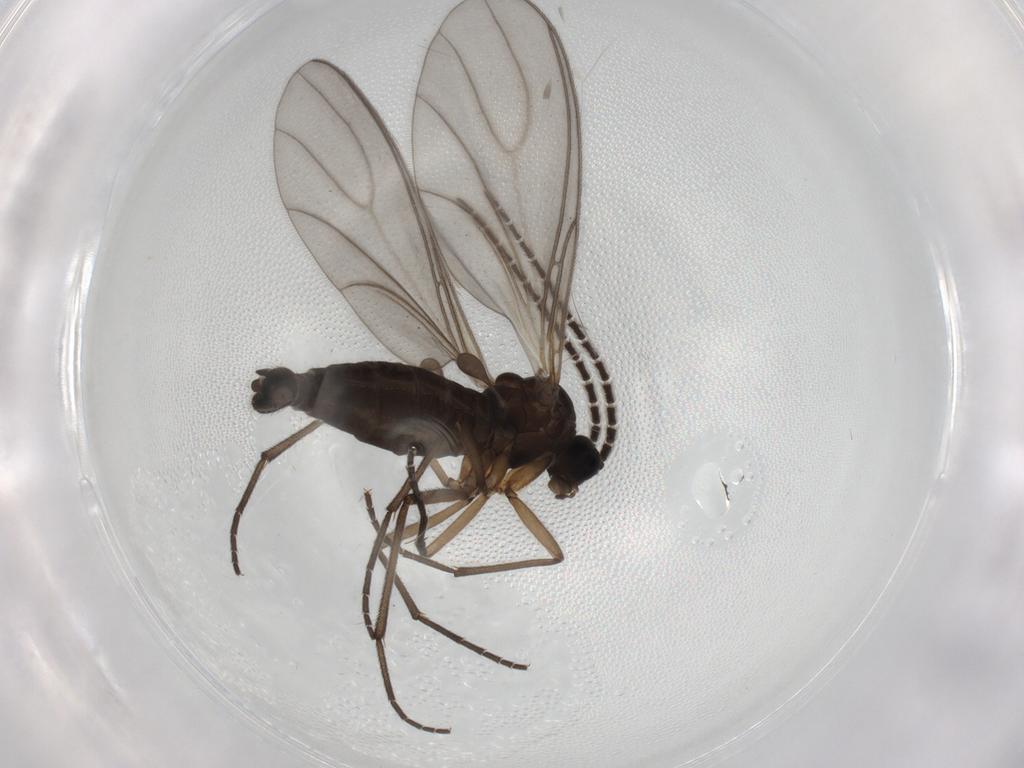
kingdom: Animalia
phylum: Arthropoda
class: Insecta
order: Diptera
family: Sciaridae
